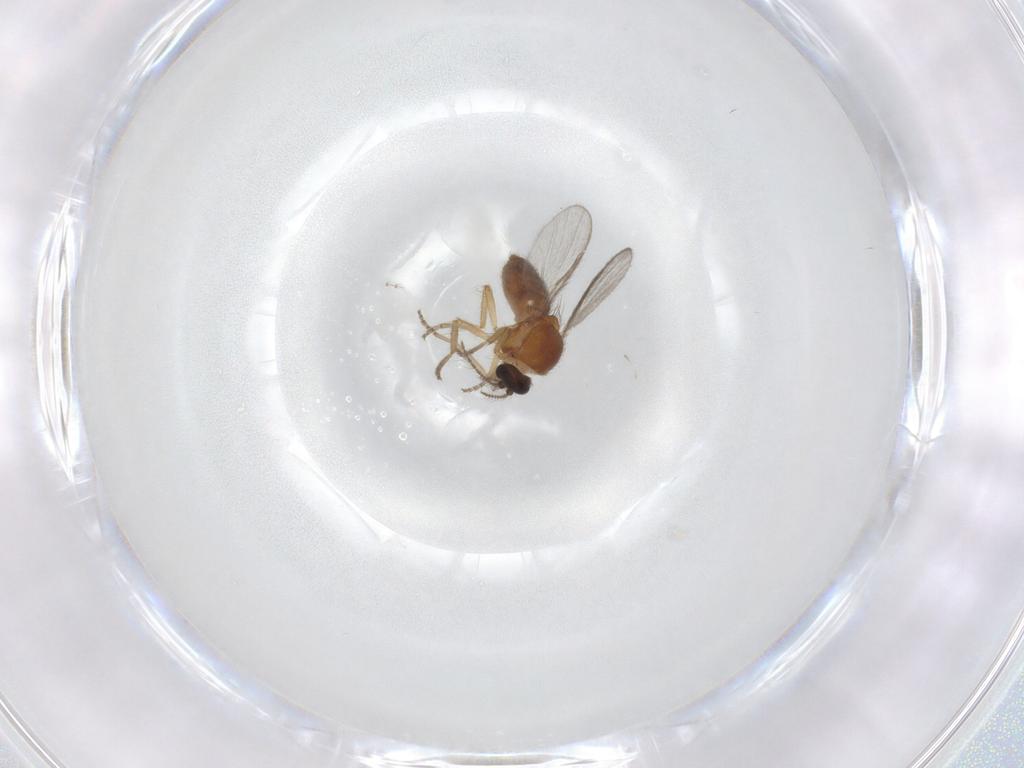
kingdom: Animalia
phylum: Arthropoda
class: Insecta
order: Diptera
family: Ceratopogonidae
